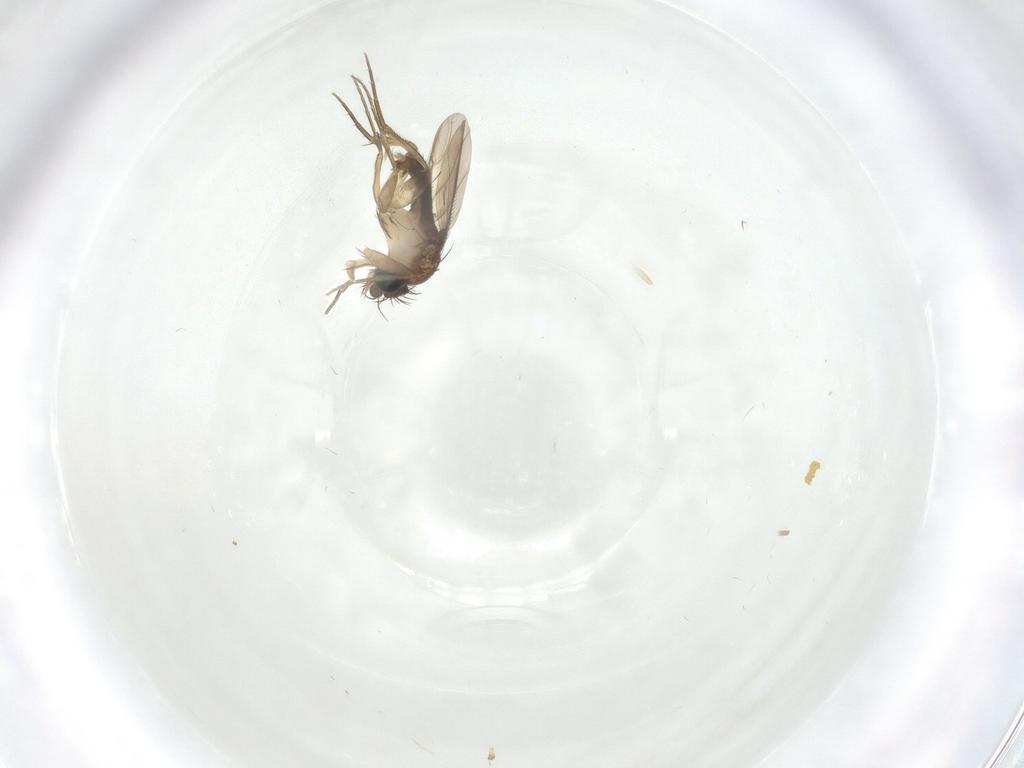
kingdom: Animalia
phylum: Arthropoda
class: Insecta
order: Diptera
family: Phoridae
